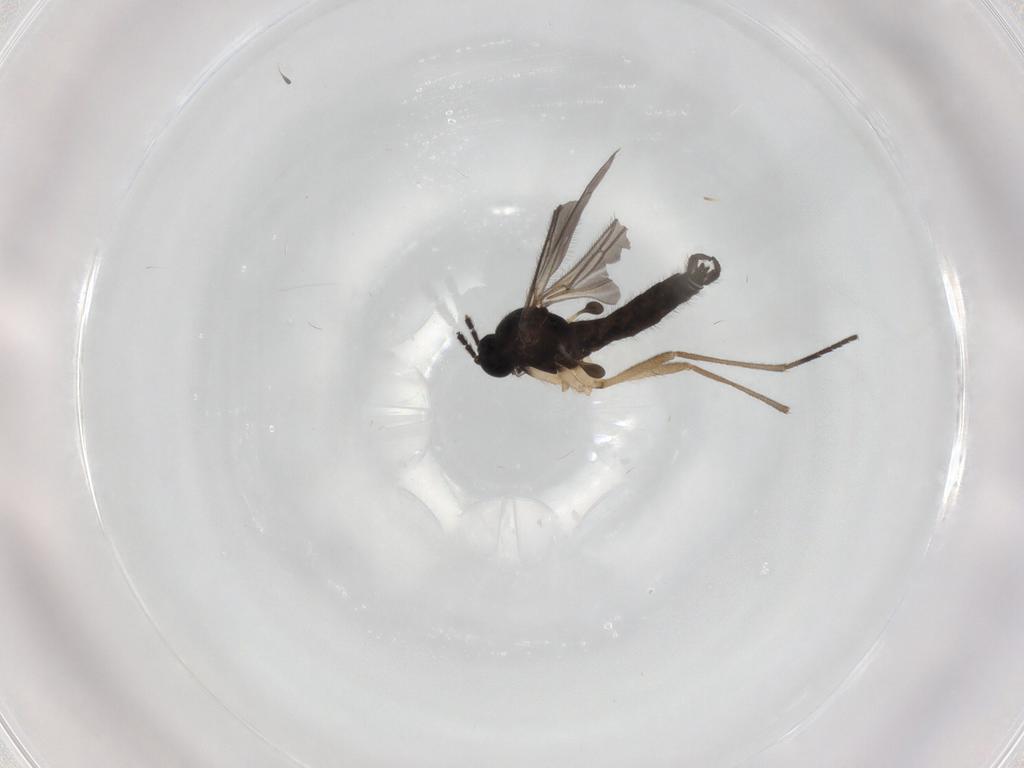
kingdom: Animalia
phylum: Arthropoda
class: Insecta
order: Diptera
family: Sciaridae
